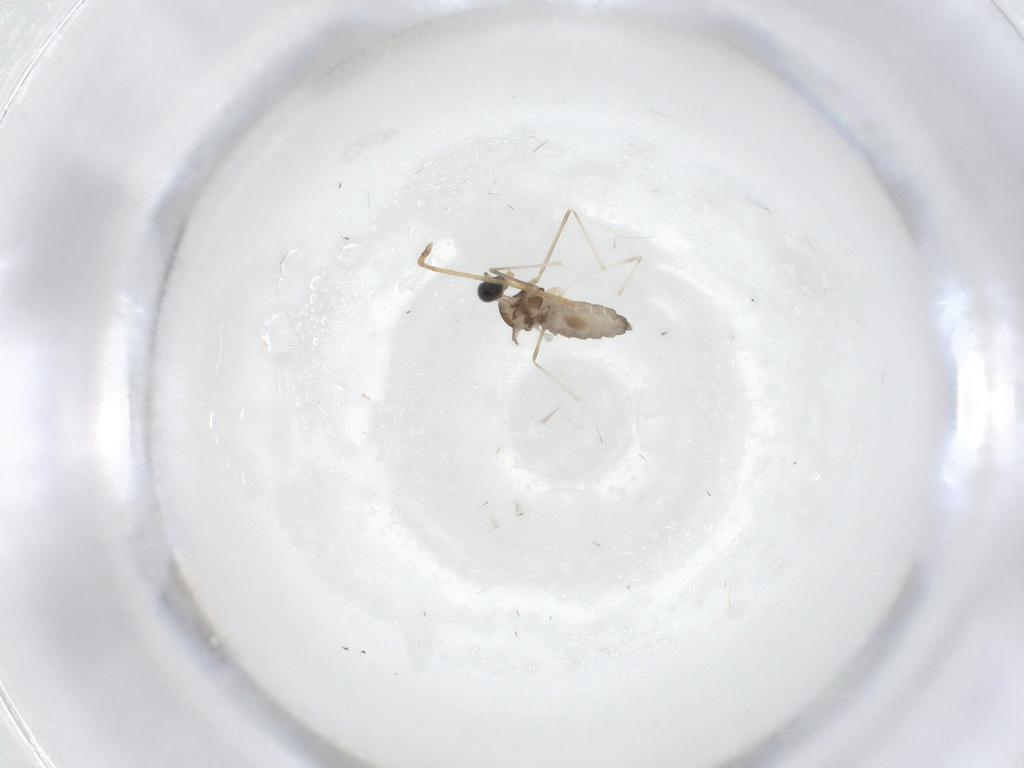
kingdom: Animalia
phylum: Arthropoda
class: Insecta
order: Diptera
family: Cecidomyiidae
